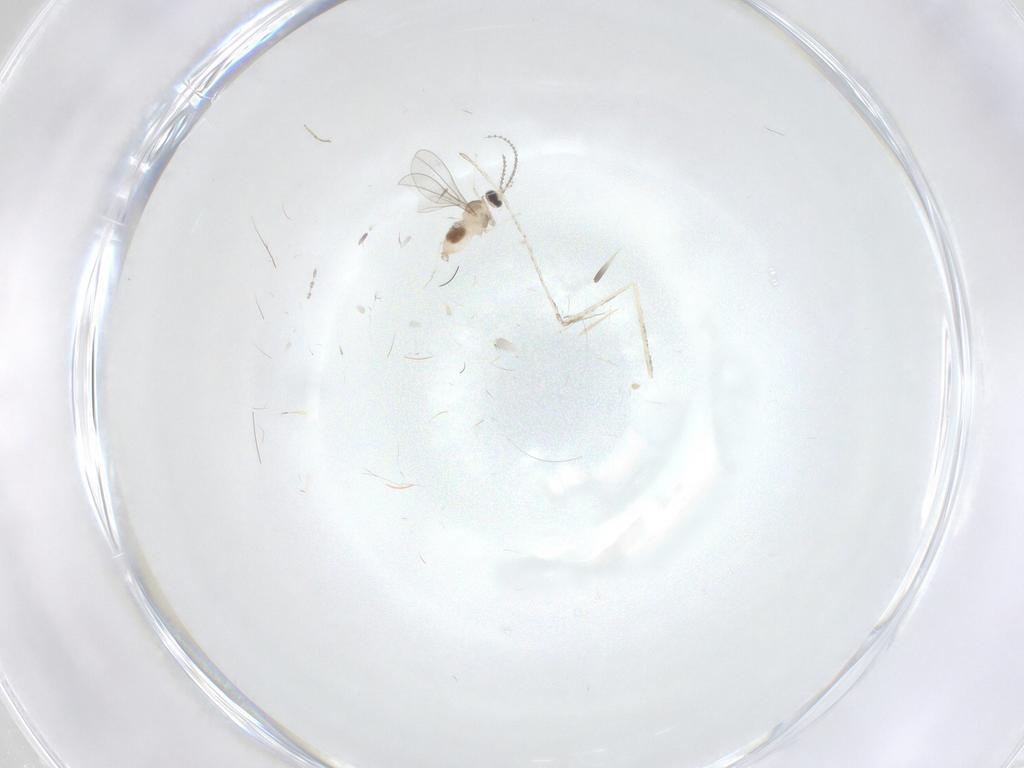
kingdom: Animalia
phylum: Arthropoda
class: Insecta
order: Diptera
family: Cecidomyiidae
